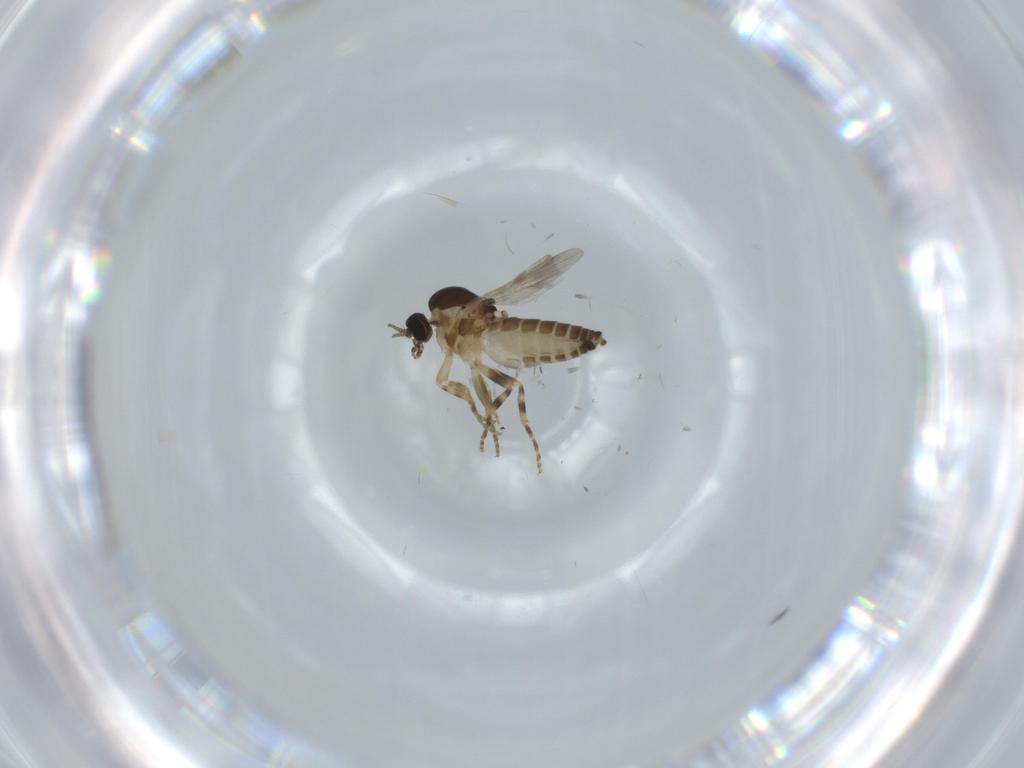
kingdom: Animalia
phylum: Arthropoda
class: Insecta
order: Diptera
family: Ceratopogonidae
